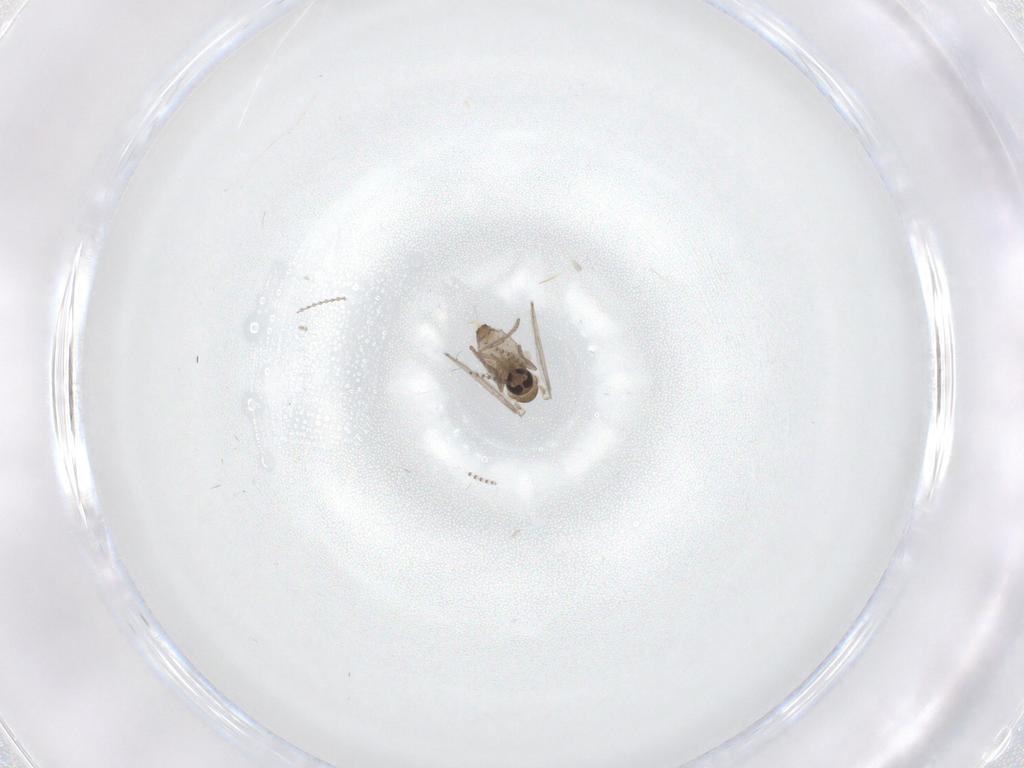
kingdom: Animalia
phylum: Arthropoda
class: Insecta
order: Diptera
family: Psychodidae
